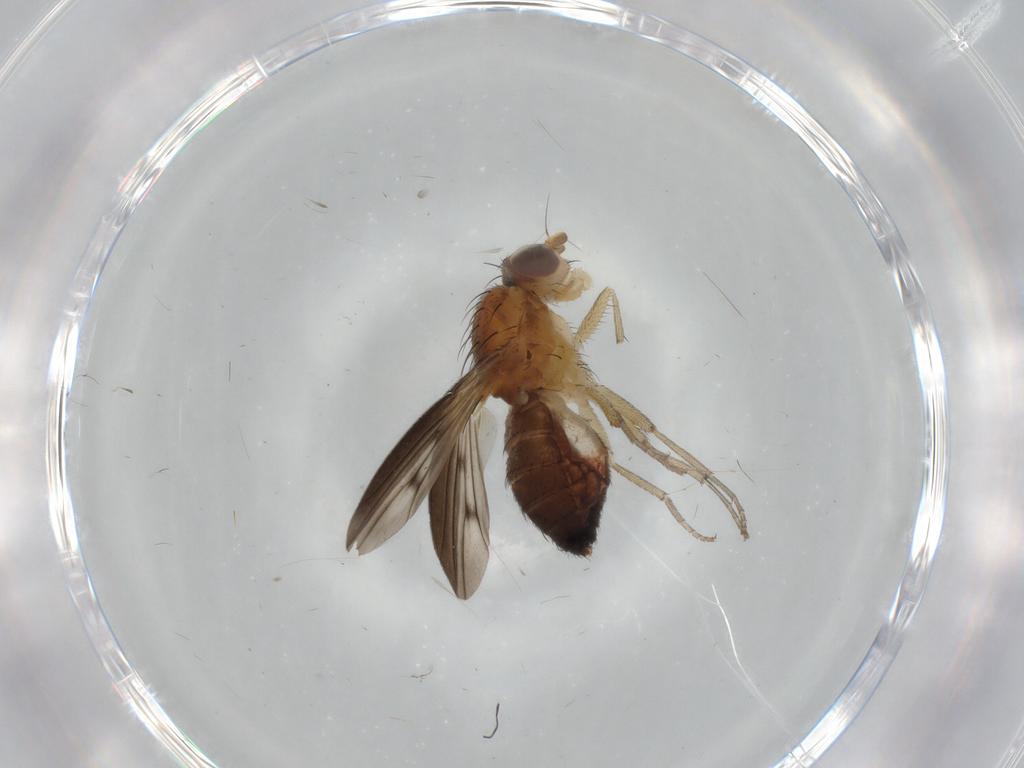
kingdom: Animalia
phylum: Arthropoda
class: Insecta
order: Diptera
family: Heleomyzidae
